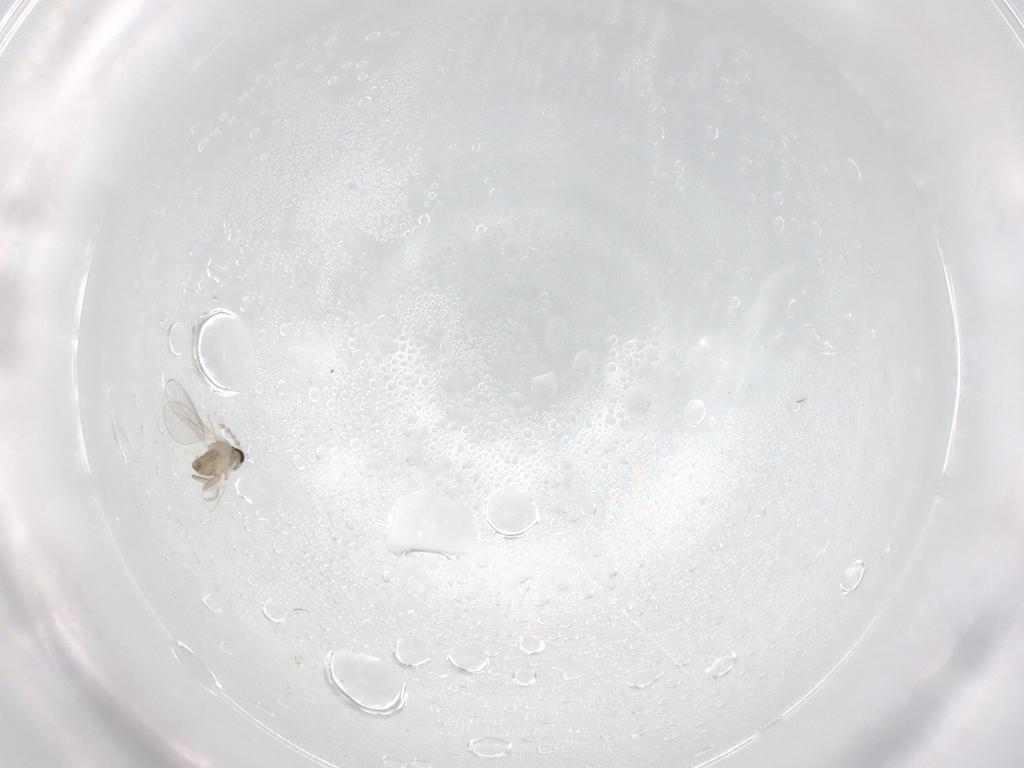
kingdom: Animalia
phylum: Arthropoda
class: Insecta
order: Diptera
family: Cecidomyiidae
